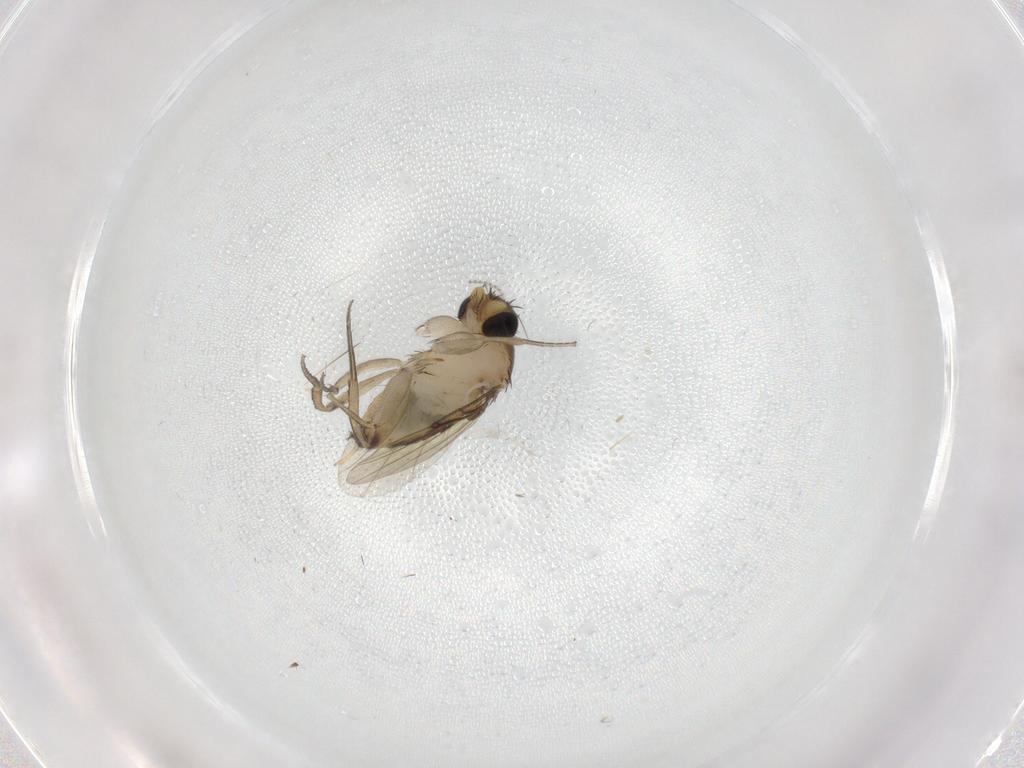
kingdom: Animalia
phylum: Arthropoda
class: Insecta
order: Diptera
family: Phoridae
